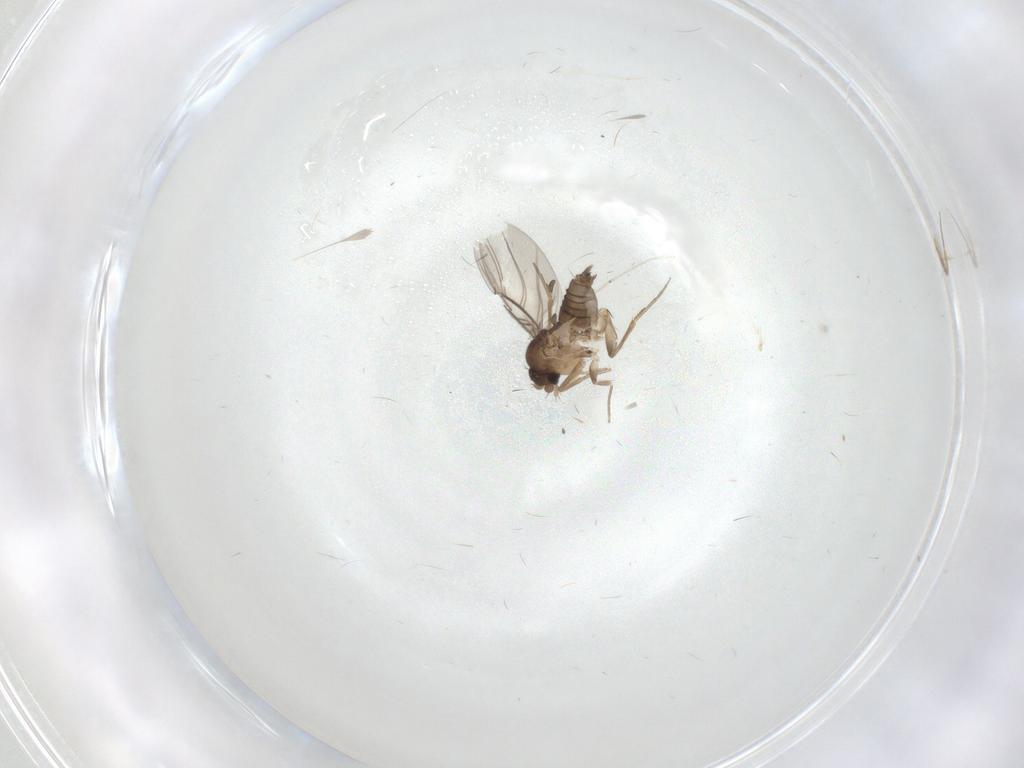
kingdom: Animalia
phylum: Arthropoda
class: Insecta
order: Diptera
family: Phoridae
